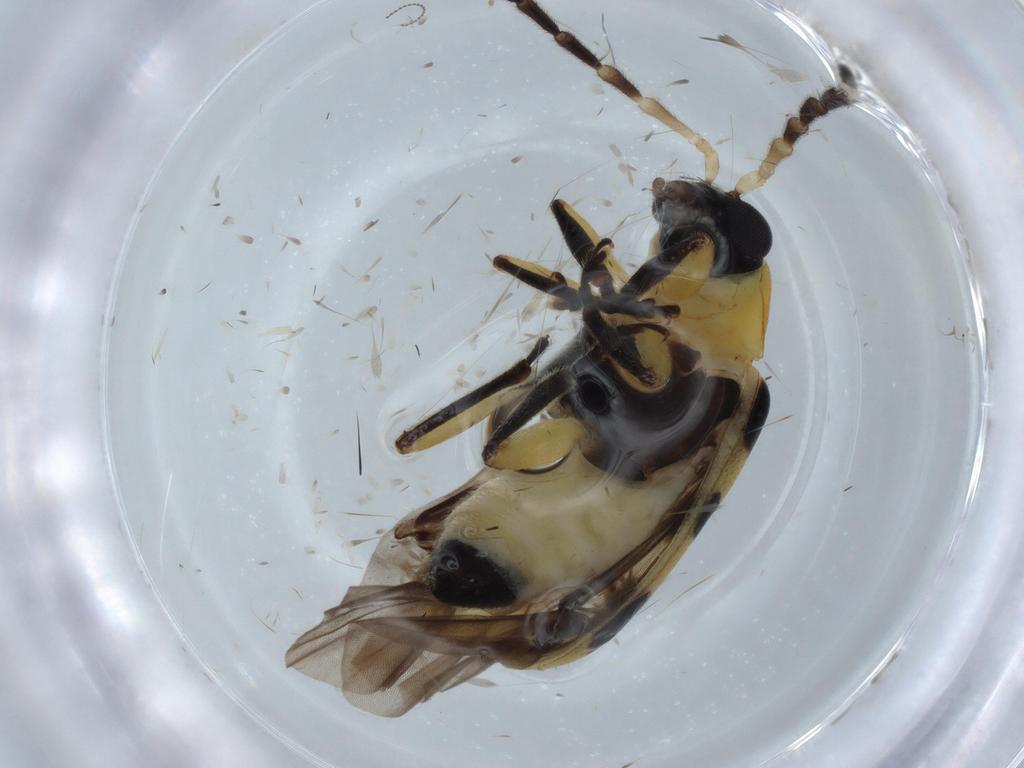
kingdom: Animalia
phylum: Arthropoda
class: Insecta
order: Coleoptera
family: Chrysomelidae
